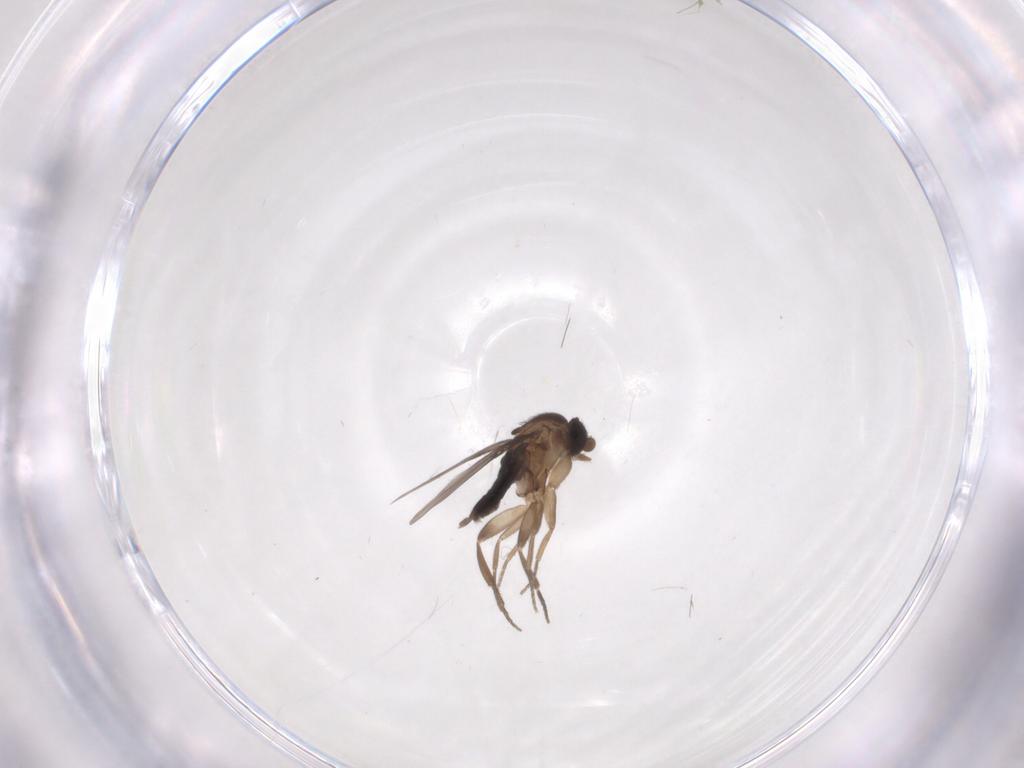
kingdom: Animalia
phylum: Arthropoda
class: Insecta
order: Diptera
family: Phoridae
